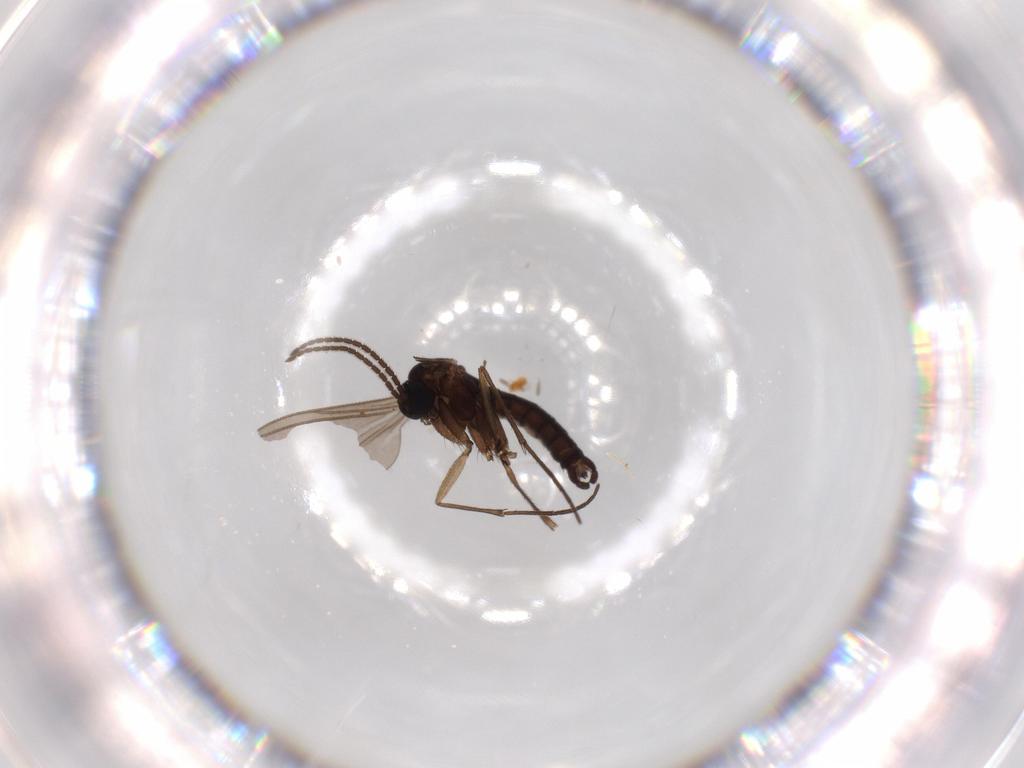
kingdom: Animalia
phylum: Arthropoda
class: Insecta
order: Diptera
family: Sciaridae
